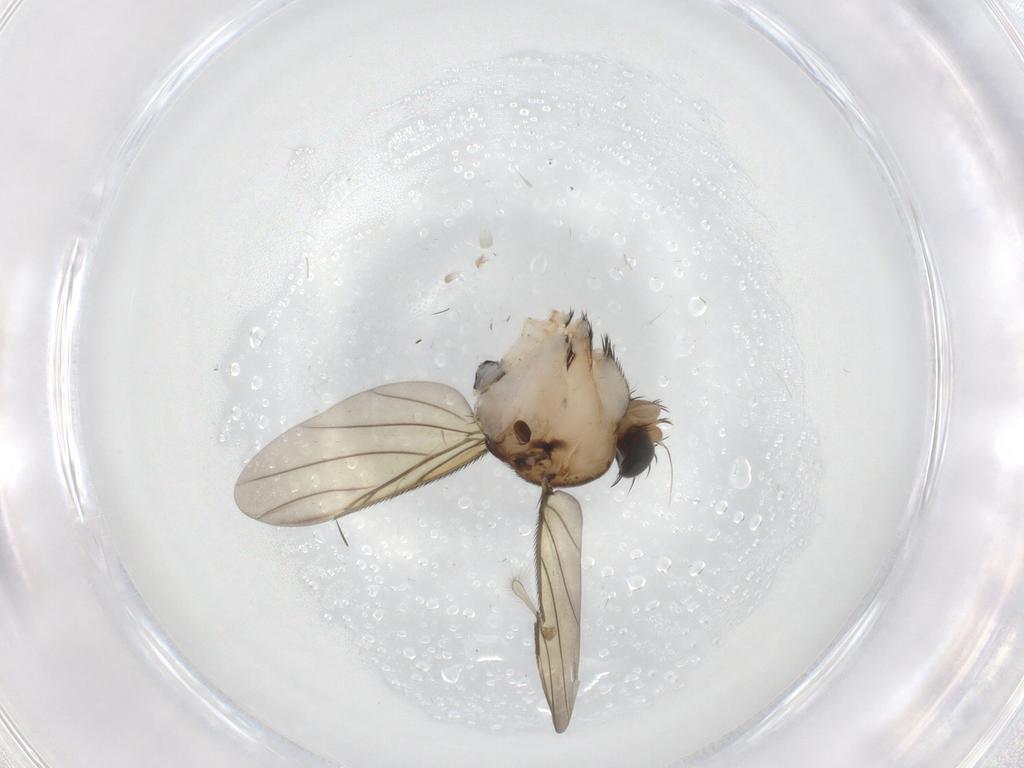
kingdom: Animalia
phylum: Arthropoda
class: Insecta
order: Diptera
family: Phoridae
